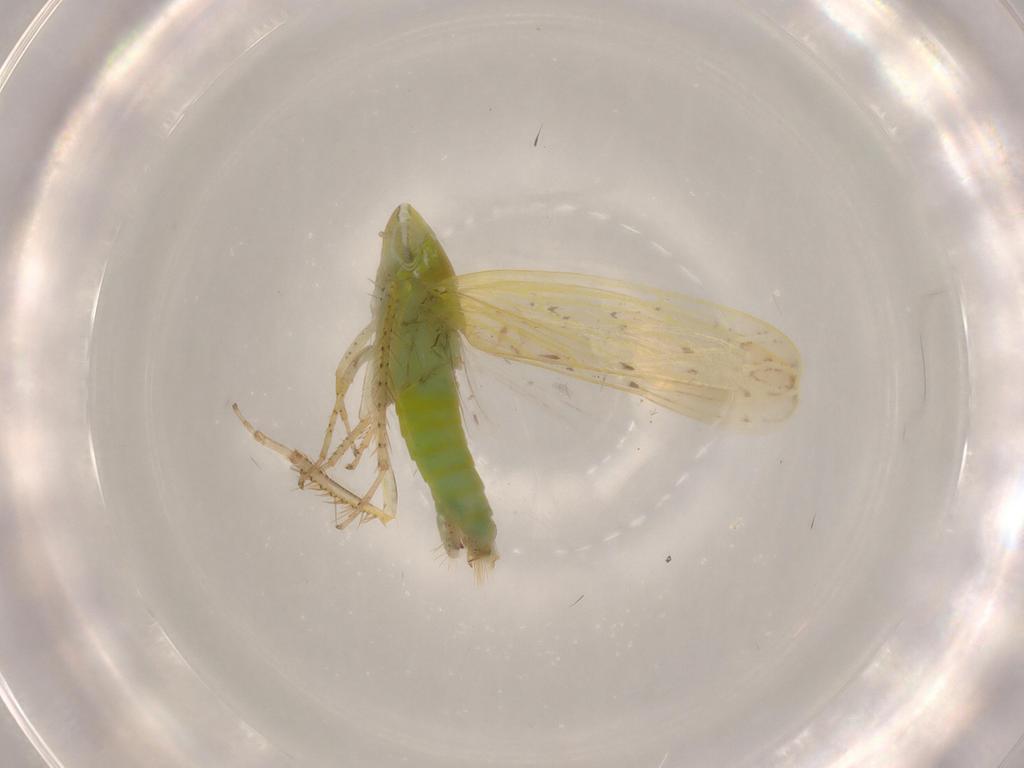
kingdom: Animalia
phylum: Arthropoda
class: Insecta
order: Hemiptera
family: Cicadellidae
